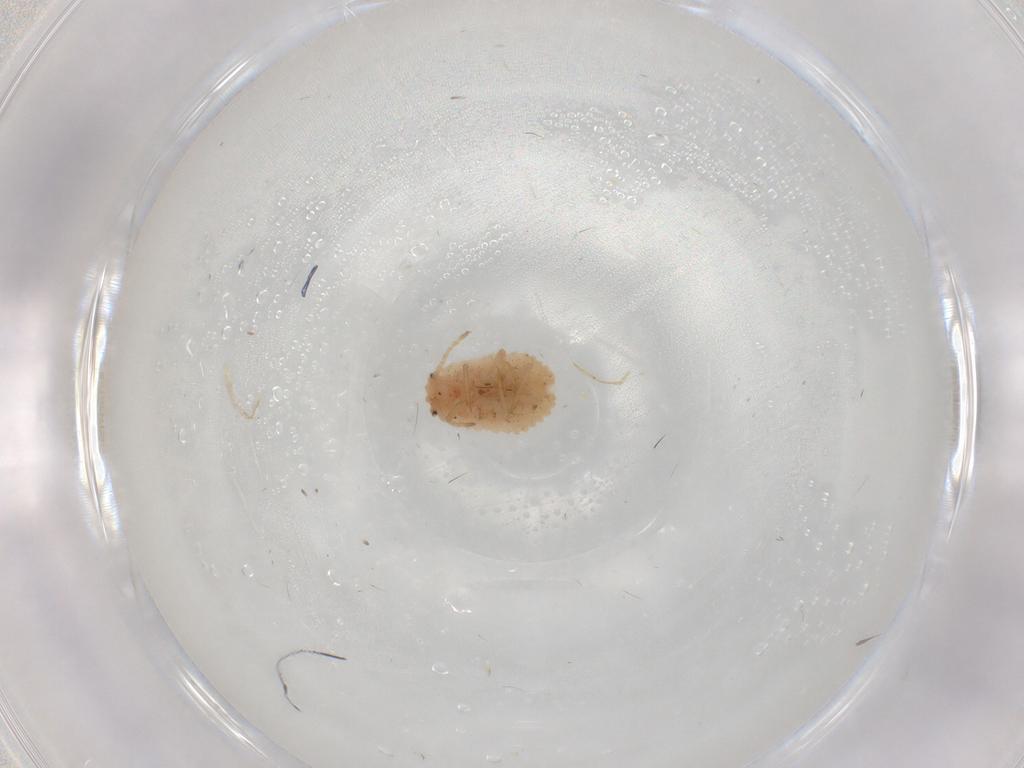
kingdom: Animalia
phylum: Arthropoda
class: Insecta
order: Hemiptera
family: Coccoidea_incertae_sedis
